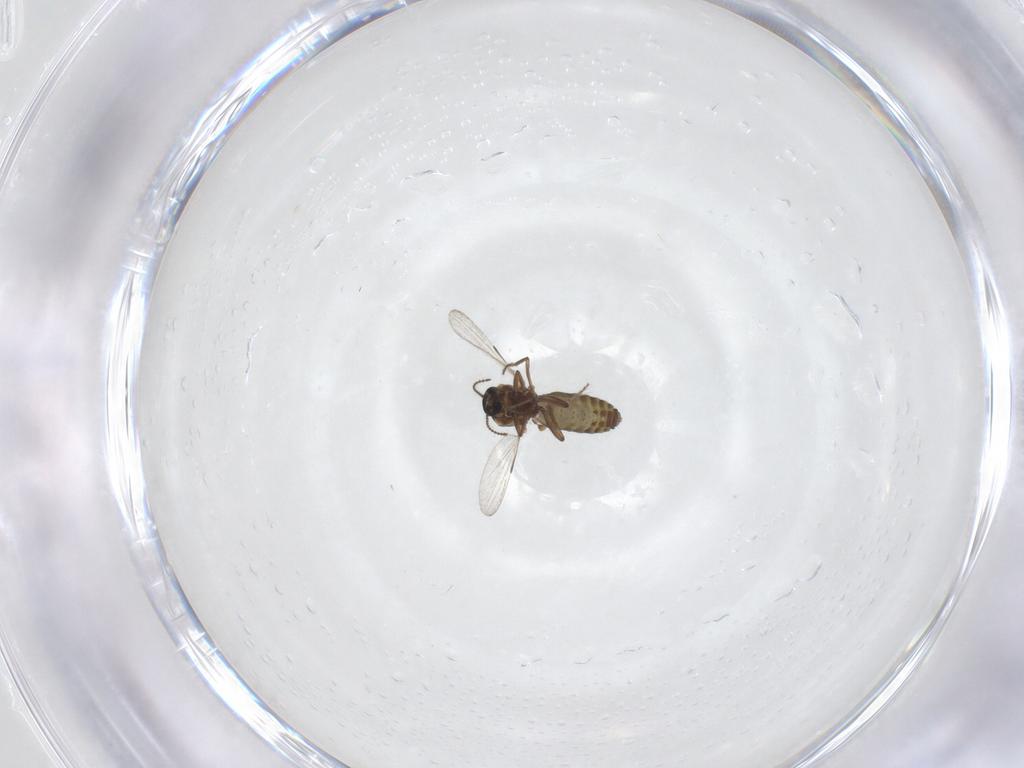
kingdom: Animalia
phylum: Arthropoda
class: Insecta
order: Diptera
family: Ceratopogonidae
